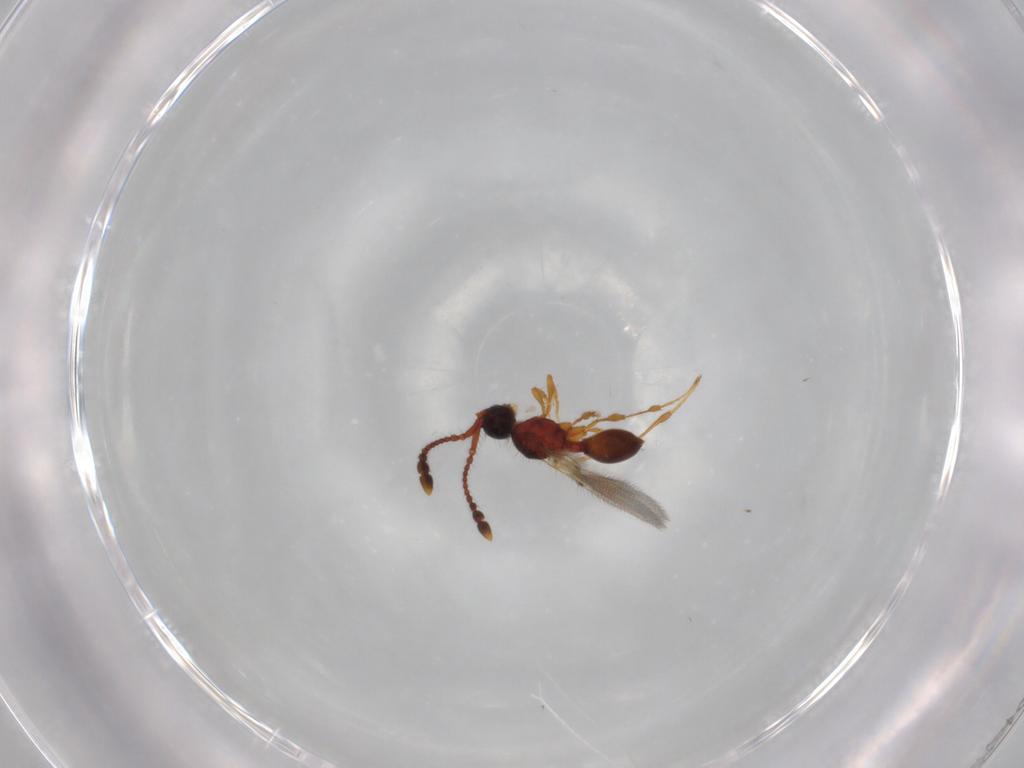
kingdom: Animalia
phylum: Arthropoda
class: Insecta
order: Hymenoptera
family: Diapriidae
